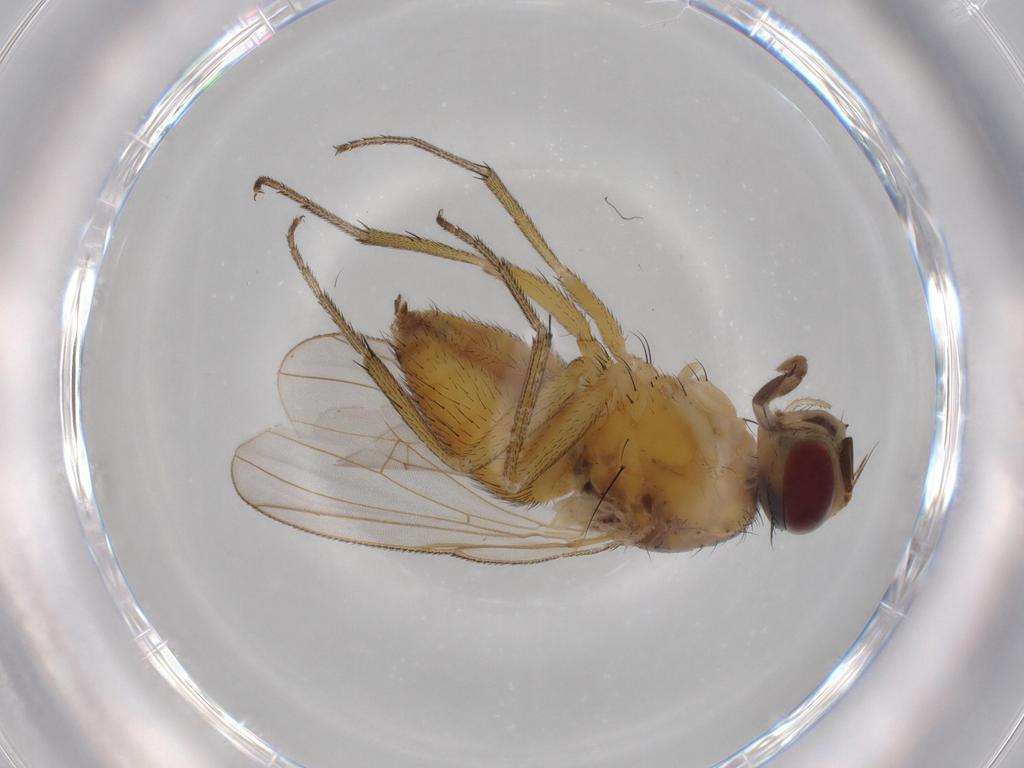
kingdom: Animalia
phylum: Arthropoda
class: Insecta
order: Diptera
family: Muscidae
